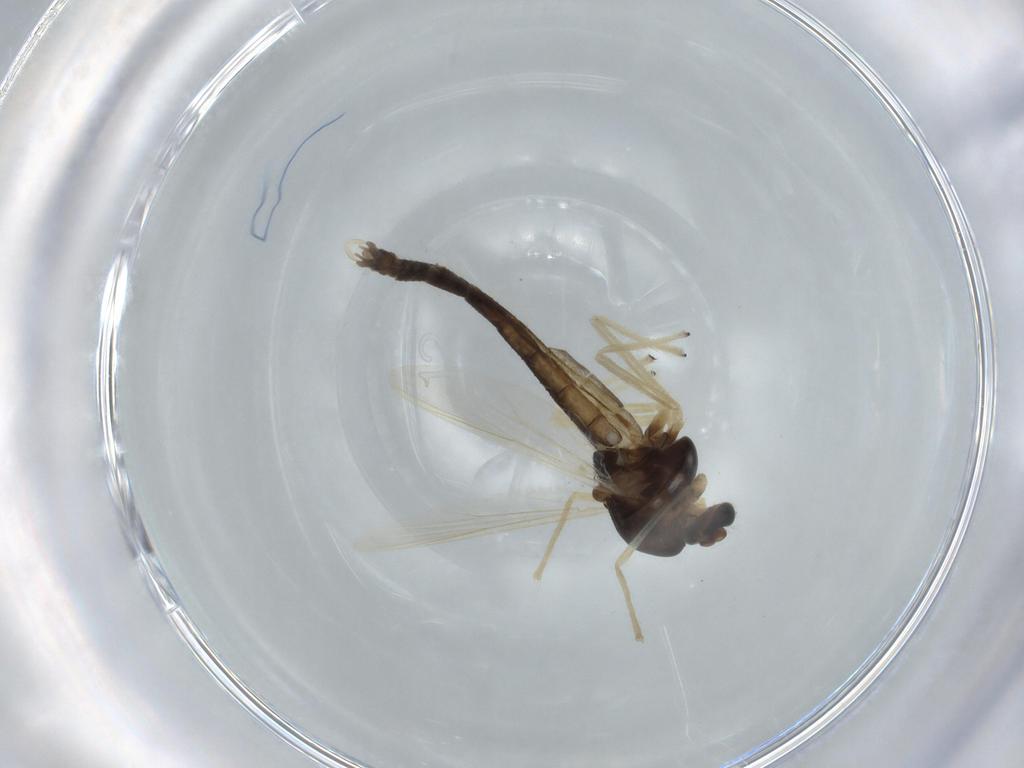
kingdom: Animalia
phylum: Arthropoda
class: Insecta
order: Diptera
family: Chironomidae
